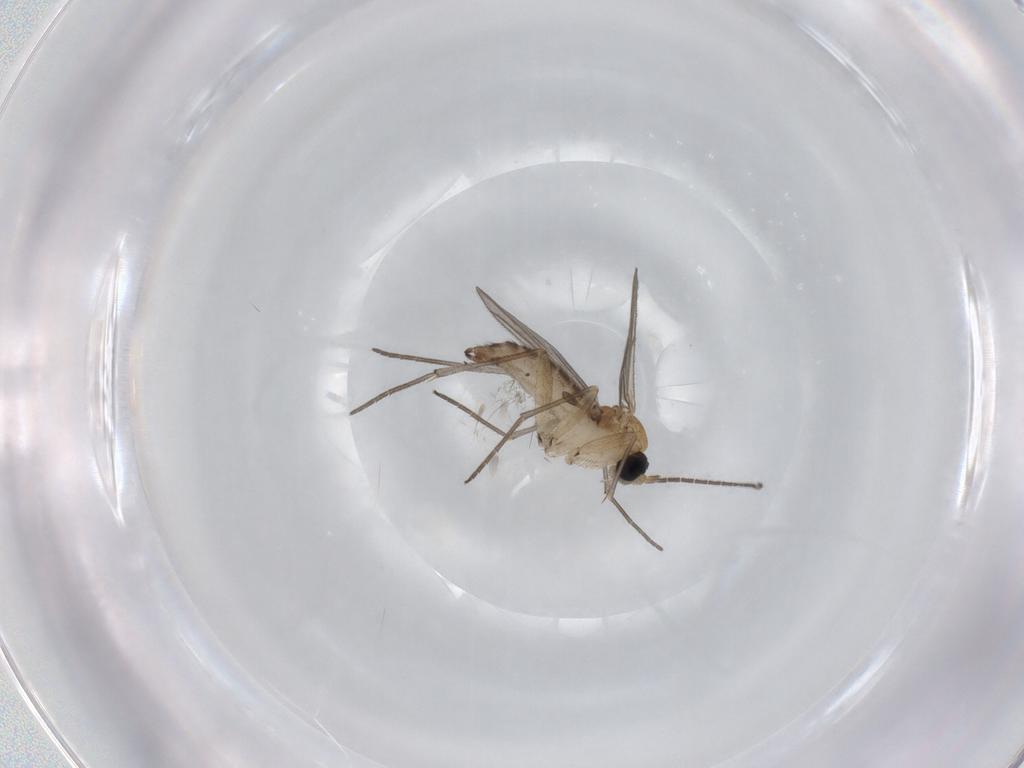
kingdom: Animalia
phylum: Arthropoda
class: Insecta
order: Diptera
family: Psychodidae
